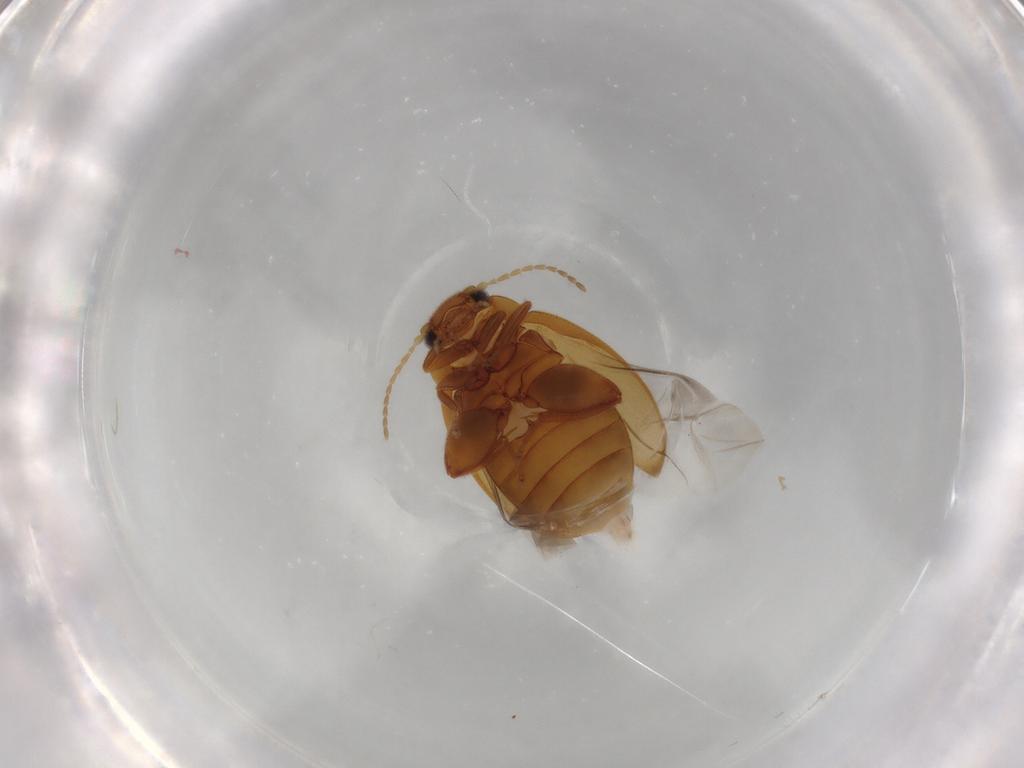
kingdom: Animalia
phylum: Arthropoda
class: Insecta
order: Coleoptera
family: Scirtidae
